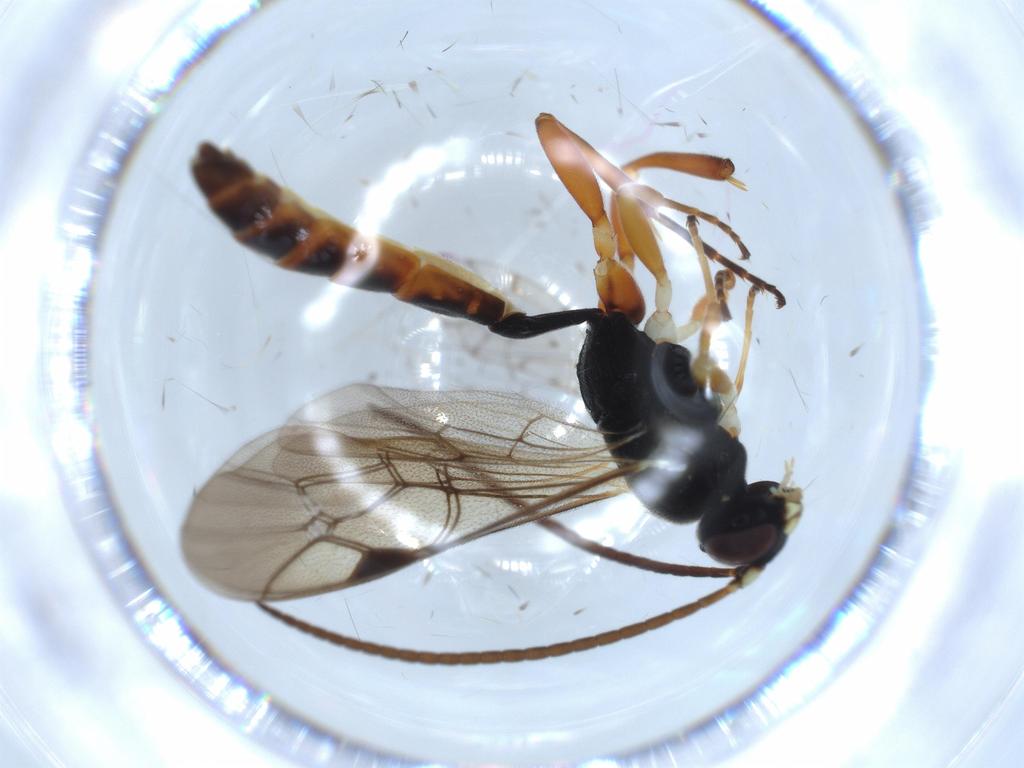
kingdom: Animalia
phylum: Arthropoda
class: Insecta
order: Hymenoptera
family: Ichneumonidae
